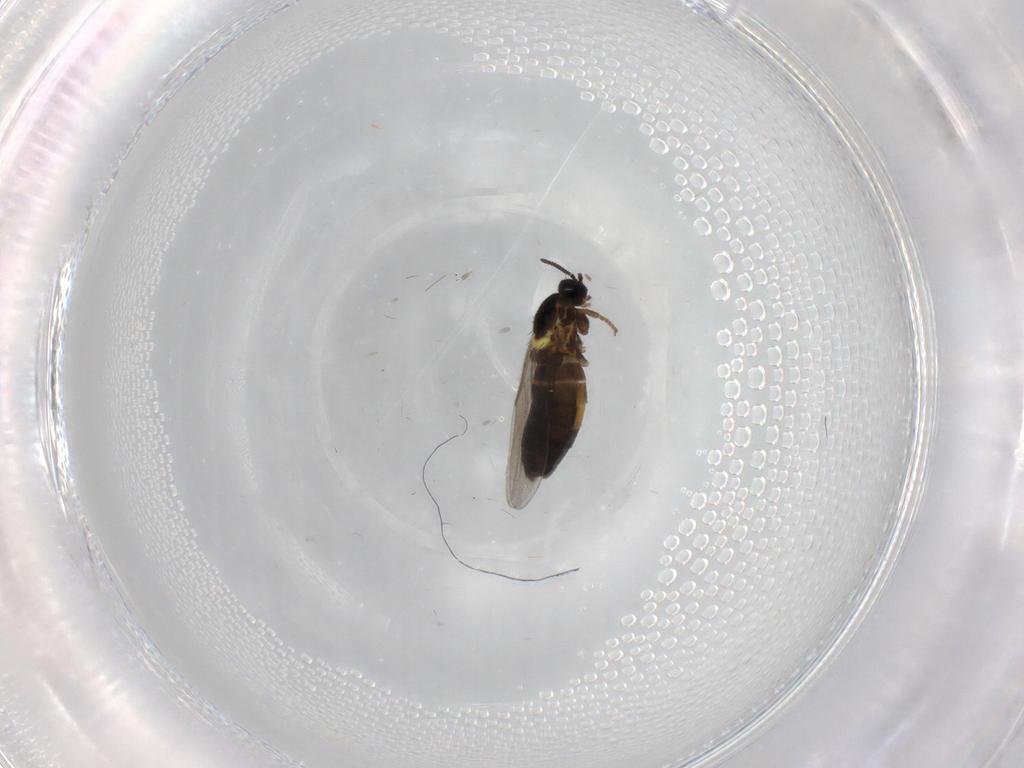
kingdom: Animalia
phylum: Arthropoda
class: Insecta
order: Diptera
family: Scatopsidae
